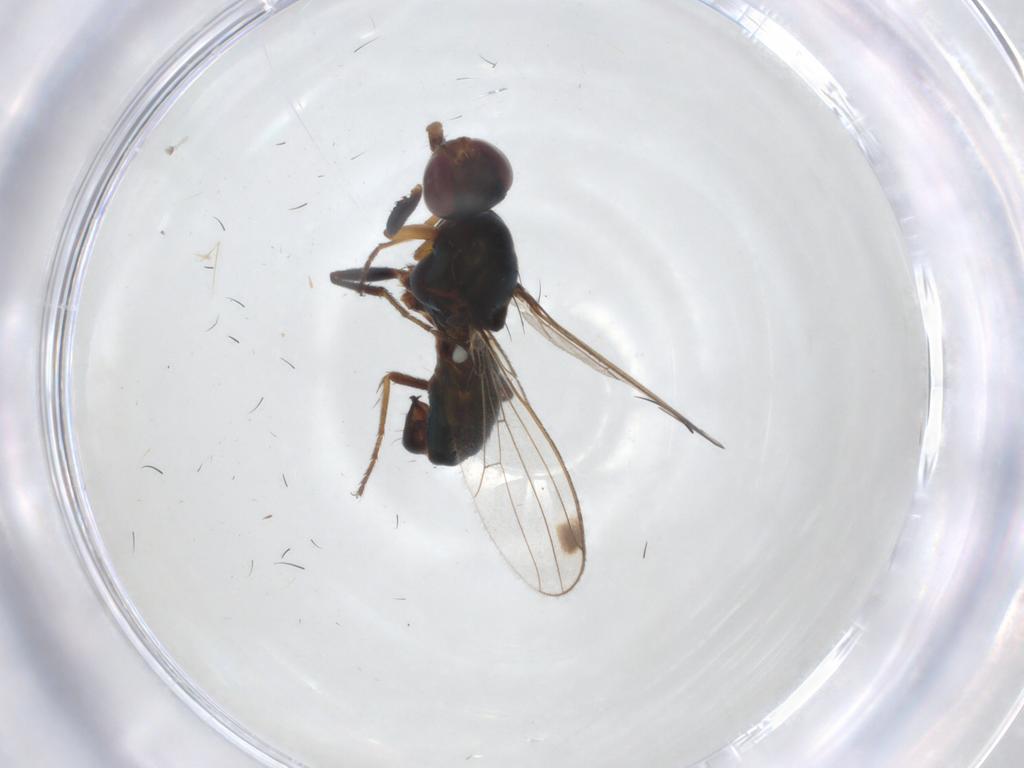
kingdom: Animalia
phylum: Arthropoda
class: Insecta
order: Diptera
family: Sepsidae
